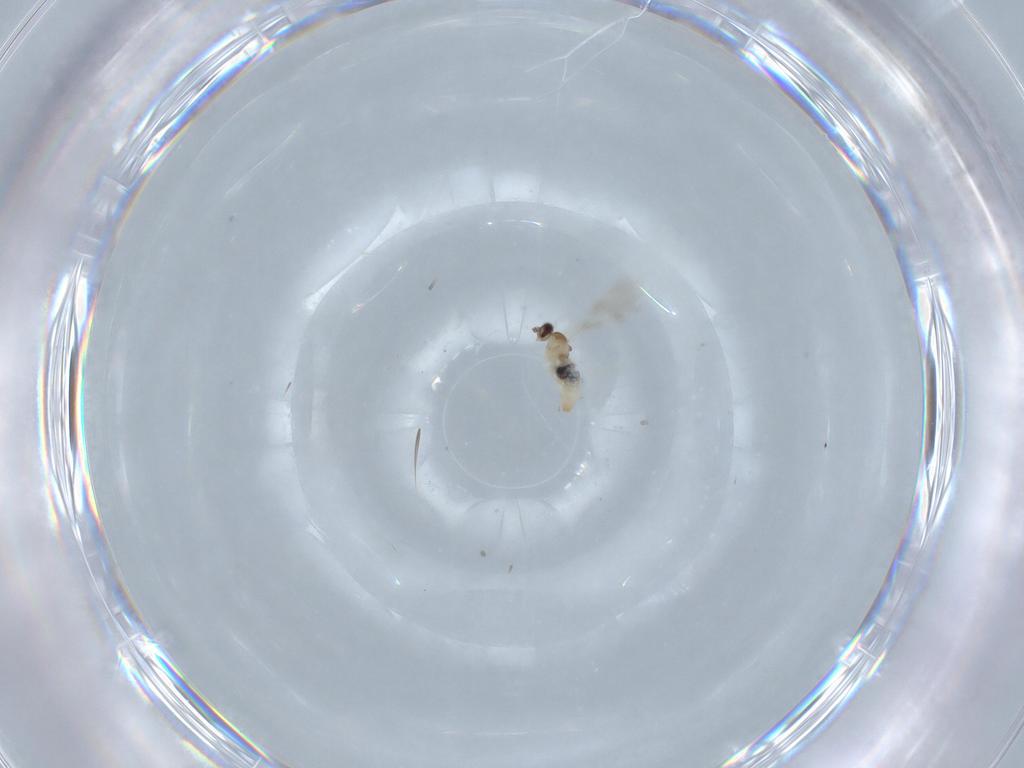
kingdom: Animalia
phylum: Arthropoda
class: Insecta
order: Diptera
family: Cecidomyiidae
